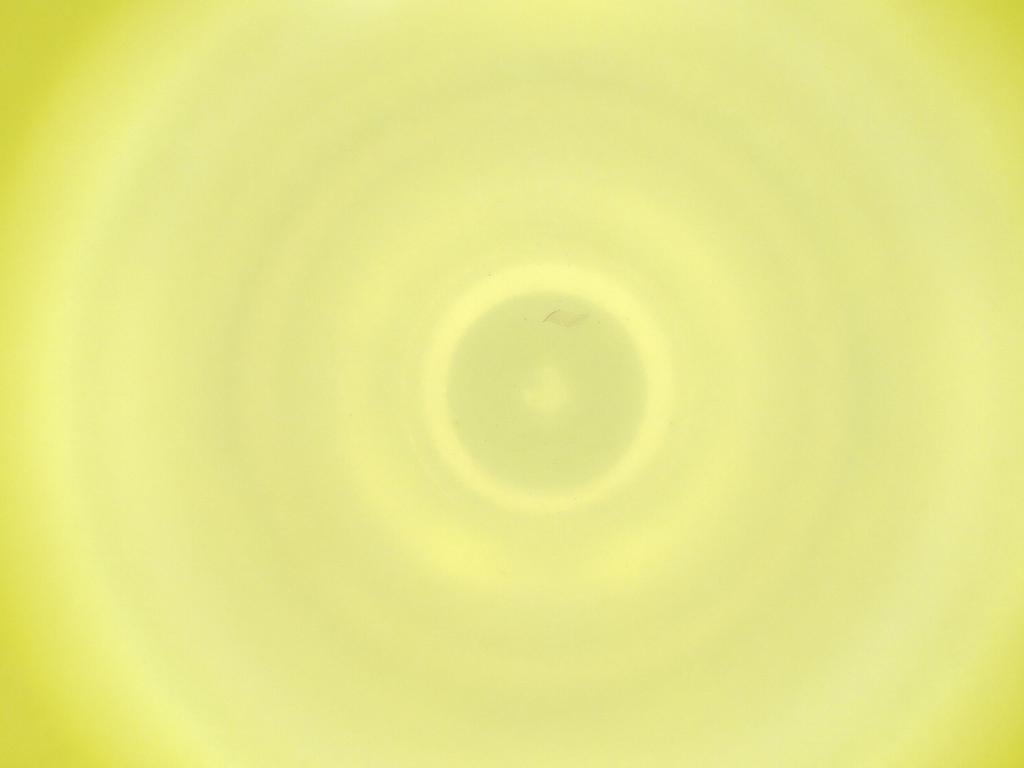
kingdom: Animalia
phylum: Arthropoda
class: Insecta
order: Diptera
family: Cecidomyiidae
